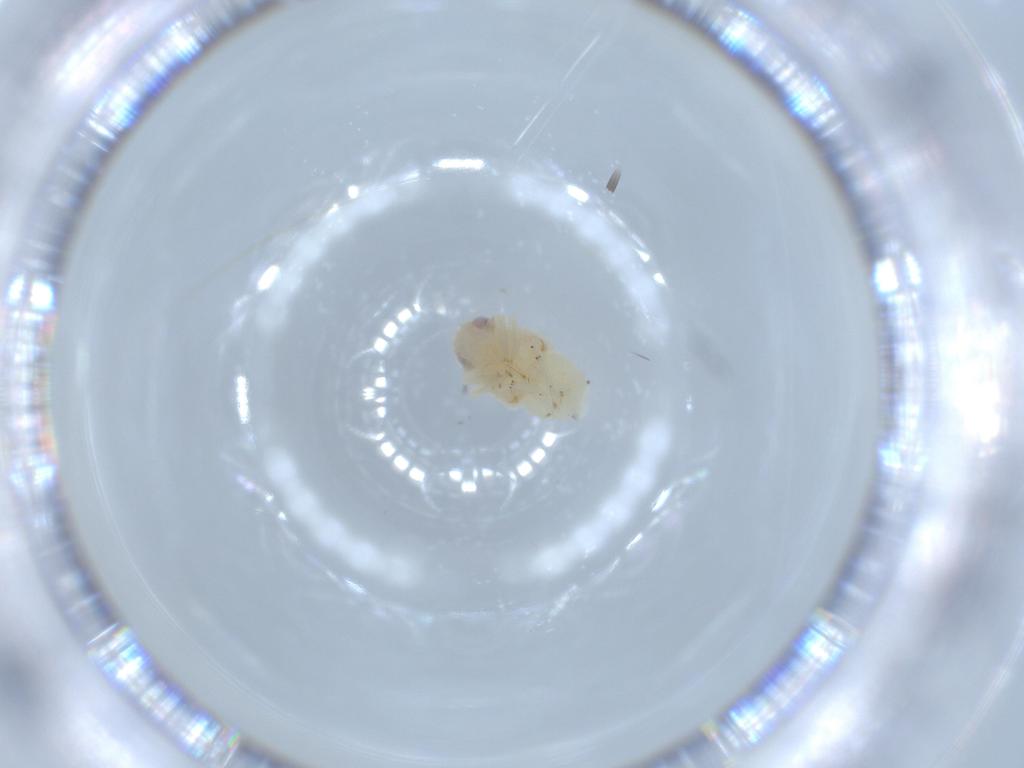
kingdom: Animalia
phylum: Arthropoda
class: Insecta
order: Hemiptera
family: Nogodinidae
